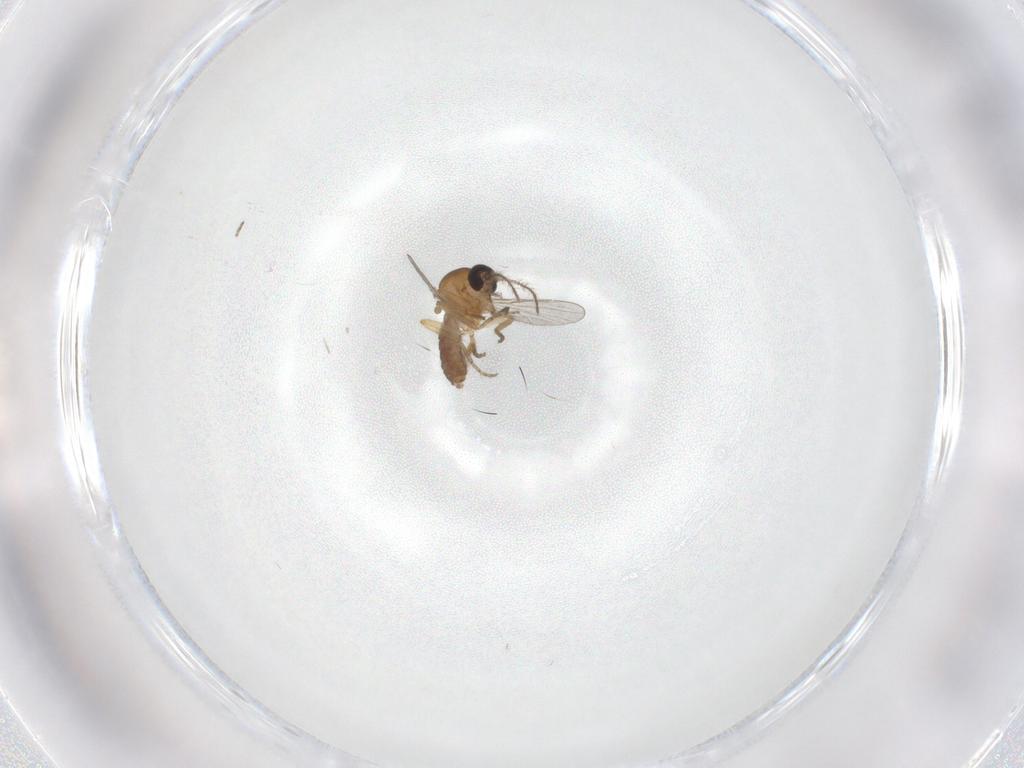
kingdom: Animalia
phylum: Arthropoda
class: Insecta
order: Diptera
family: Ceratopogonidae
